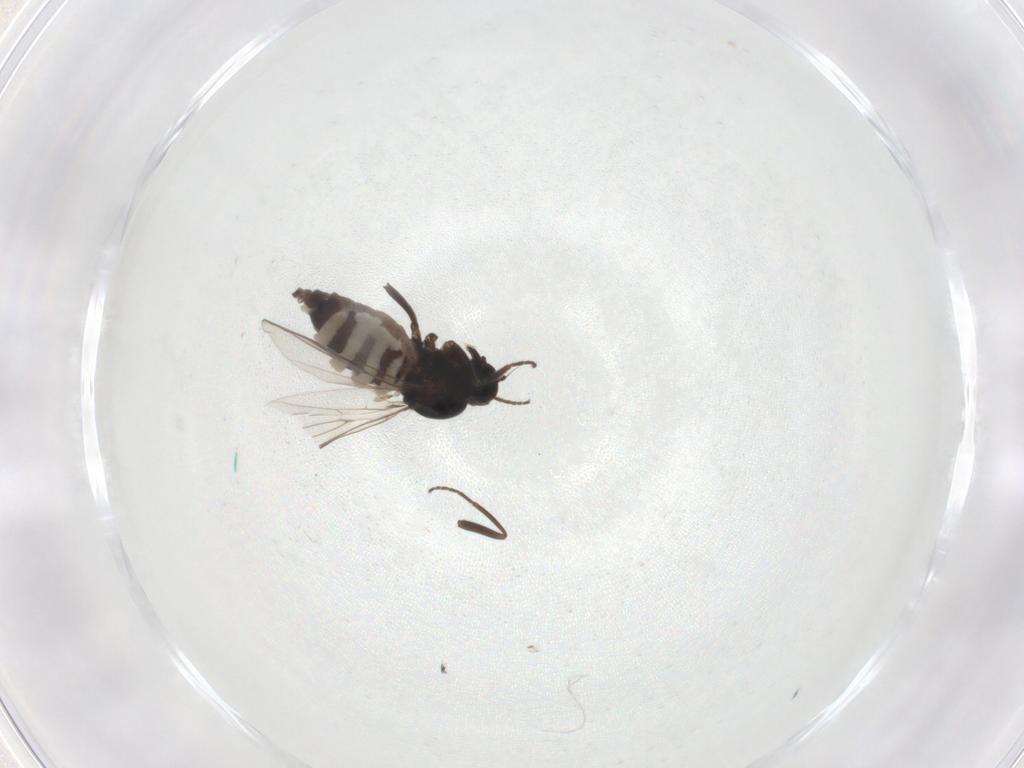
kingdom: Animalia
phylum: Arthropoda
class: Insecta
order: Diptera
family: Hybotidae
